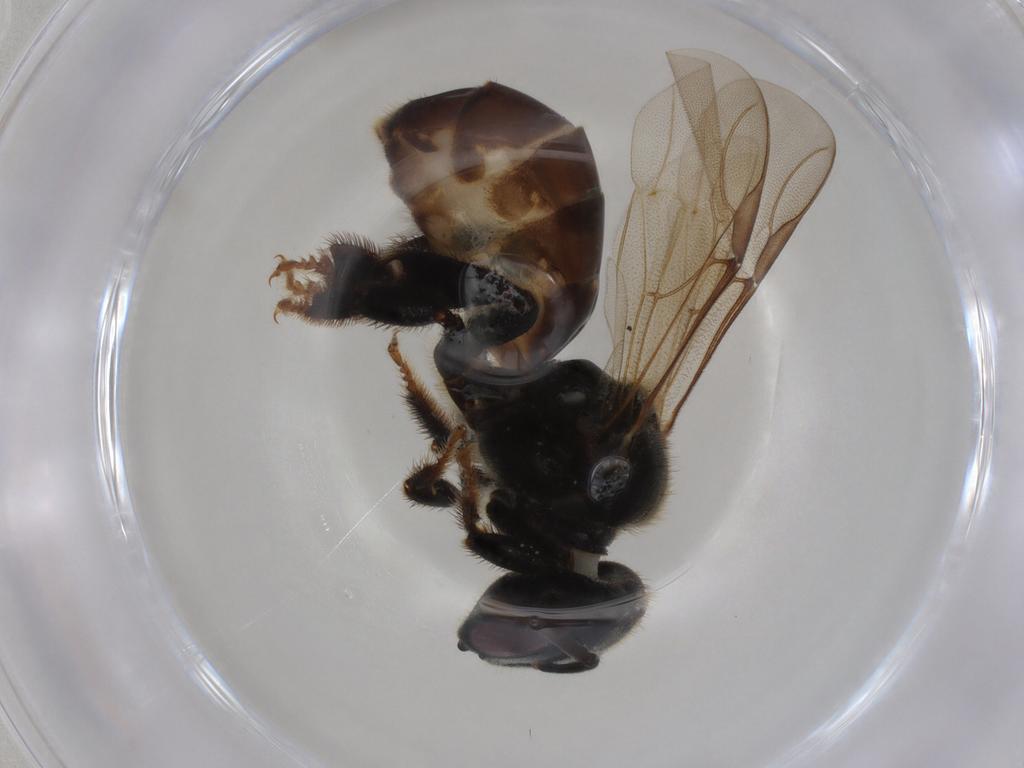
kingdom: Animalia
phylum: Arthropoda
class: Insecta
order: Hymenoptera
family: Apidae
